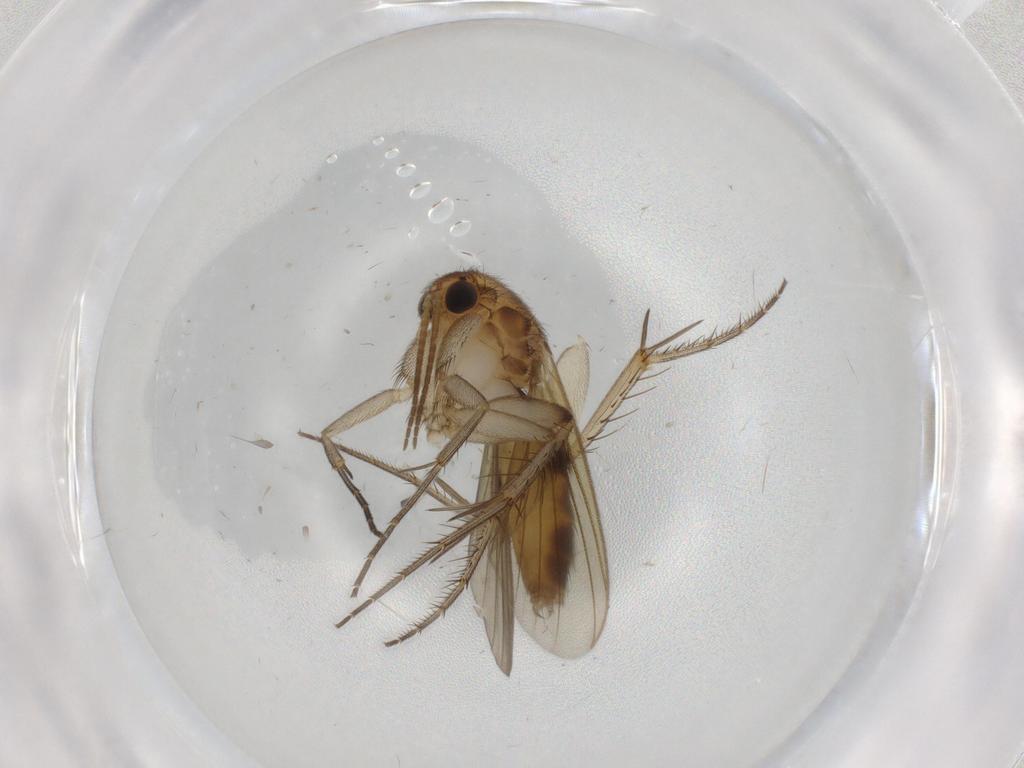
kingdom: Animalia
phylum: Arthropoda
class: Insecta
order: Diptera
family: Mycetophilidae
